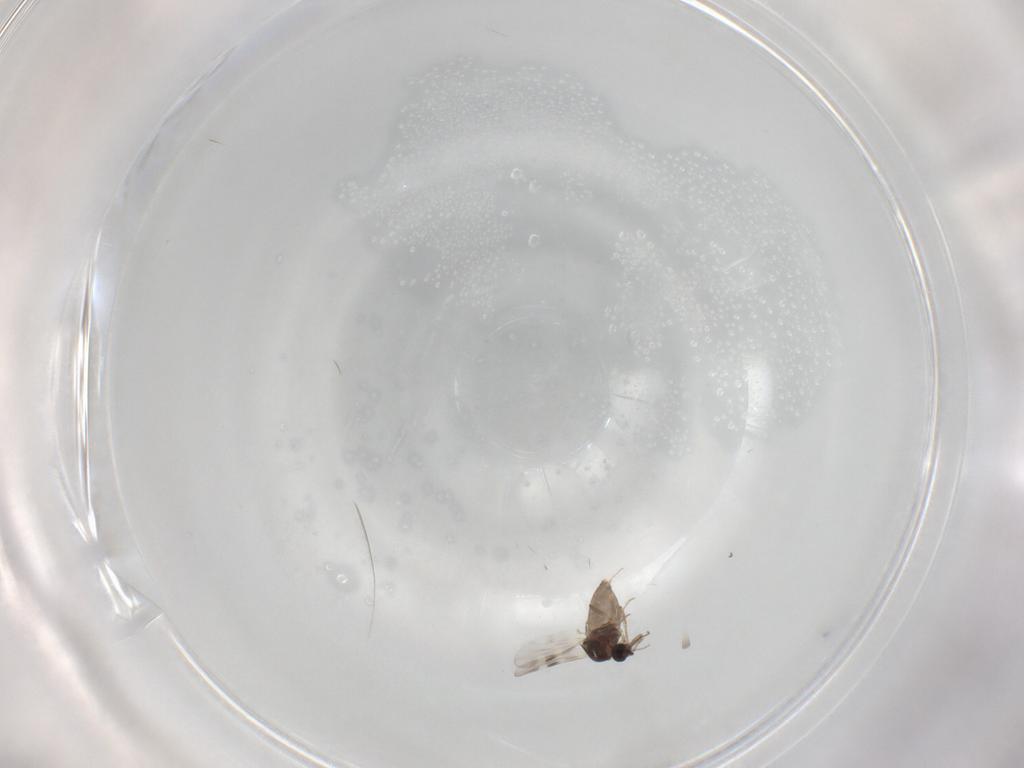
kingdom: Animalia
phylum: Arthropoda
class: Insecta
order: Diptera
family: Phoridae
